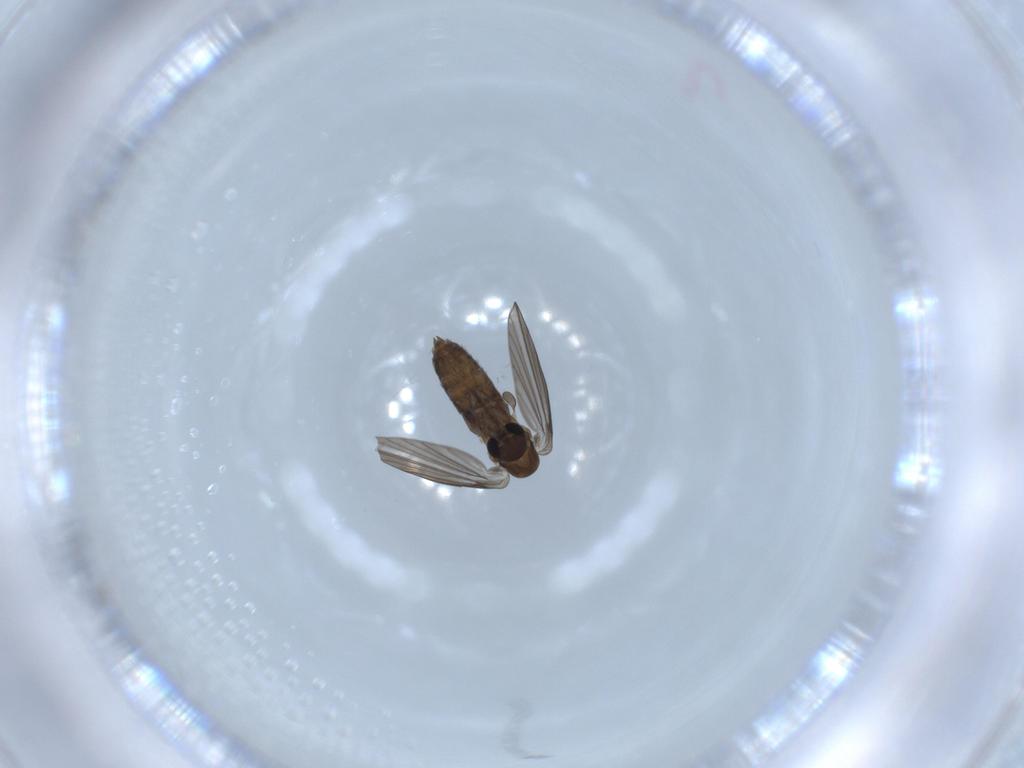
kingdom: Animalia
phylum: Arthropoda
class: Insecta
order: Diptera
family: Psychodidae
